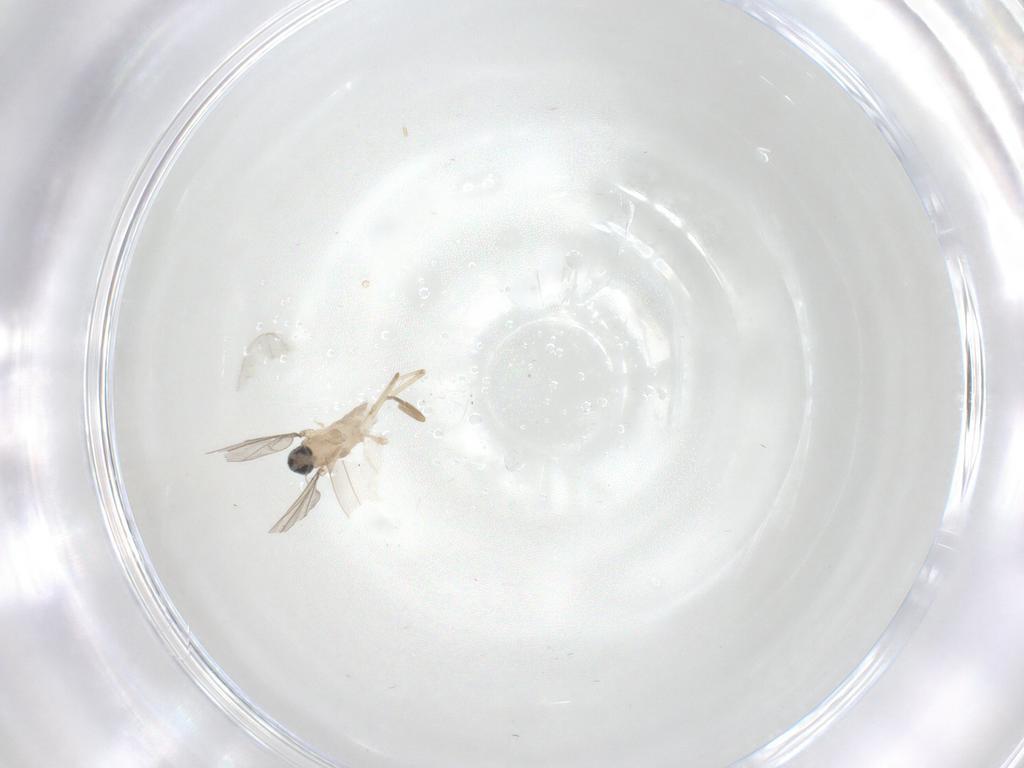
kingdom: Animalia
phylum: Arthropoda
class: Insecta
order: Diptera
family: Phoridae
